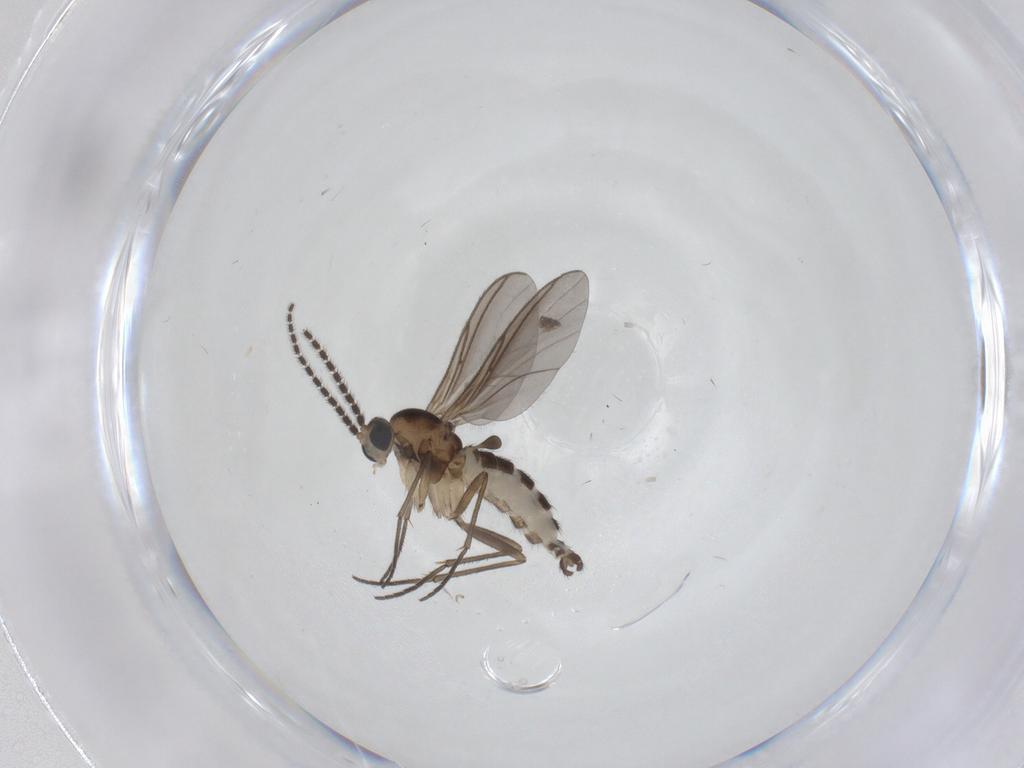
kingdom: Animalia
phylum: Arthropoda
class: Insecta
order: Diptera
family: Sciaridae
